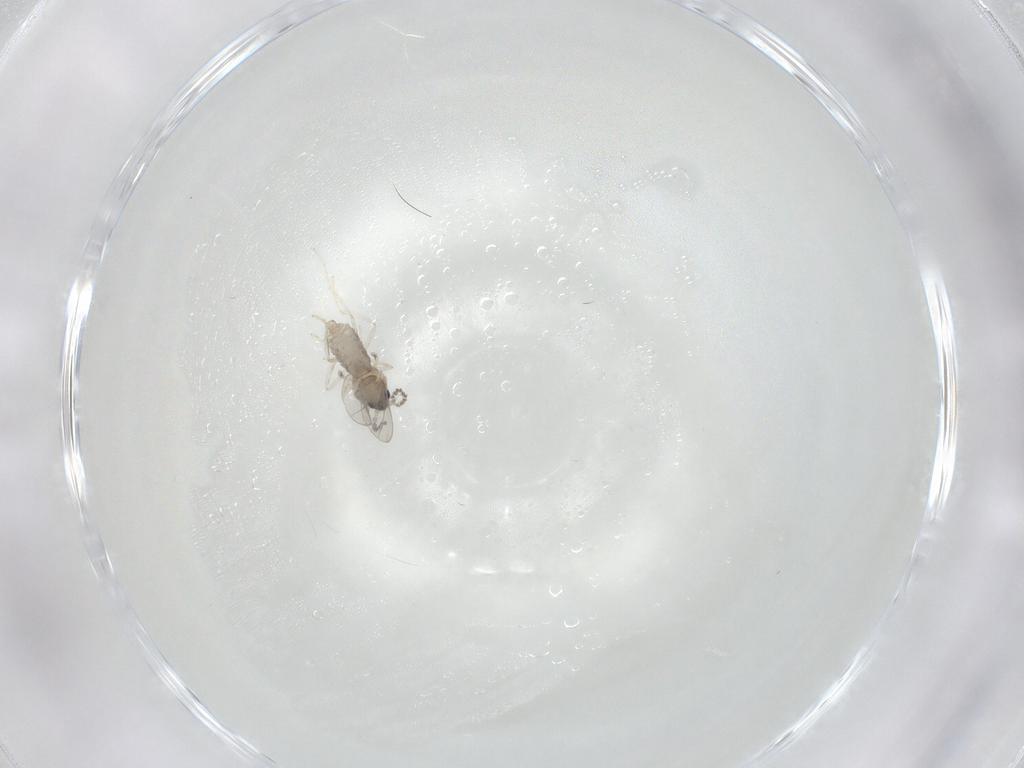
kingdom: Animalia
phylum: Arthropoda
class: Insecta
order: Diptera
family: Cecidomyiidae
